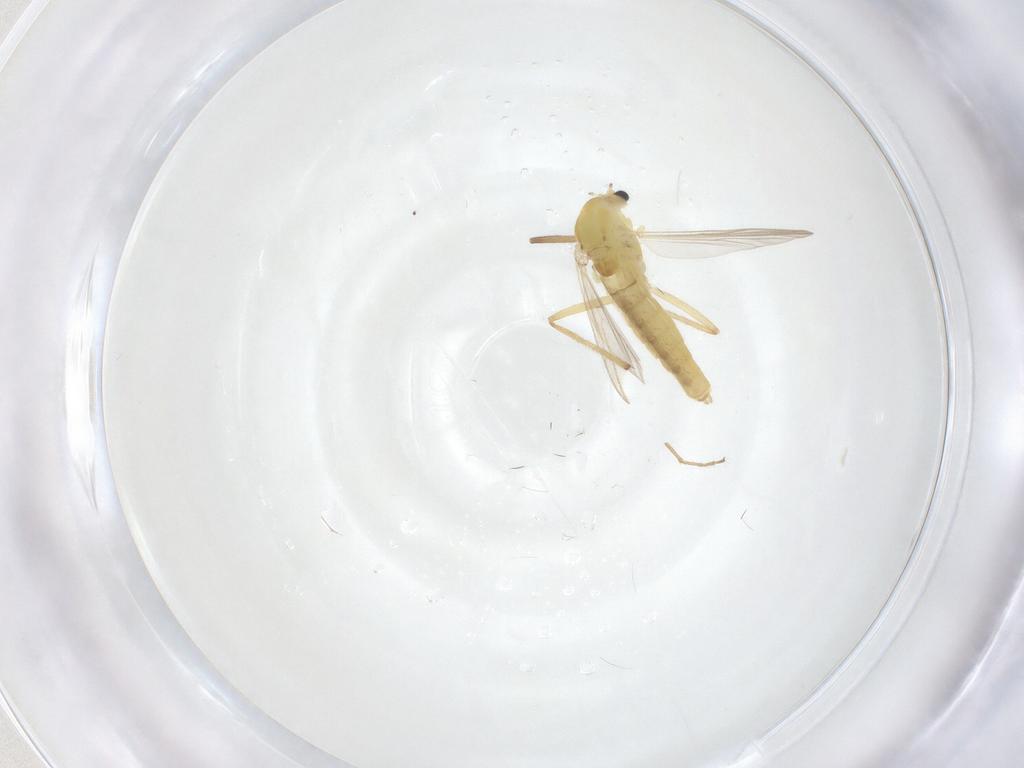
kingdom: Animalia
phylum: Arthropoda
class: Insecta
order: Diptera
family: Chironomidae
